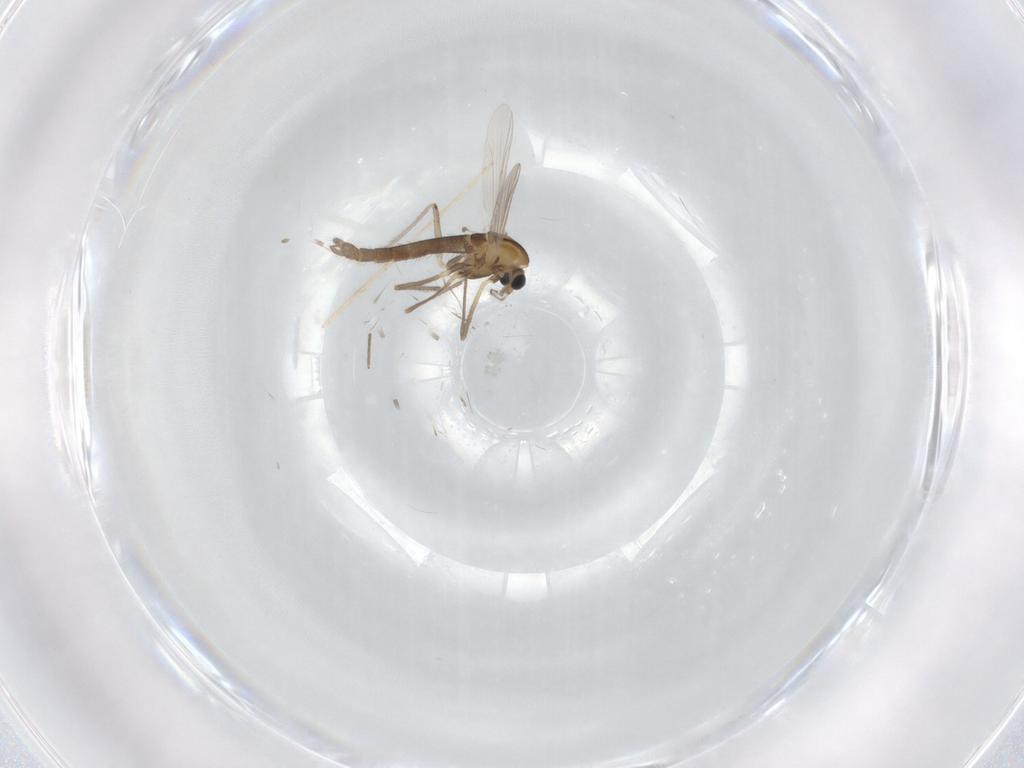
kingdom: Animalia
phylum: Arthropoda
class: Insecta
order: Diptera
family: Chironomidae
